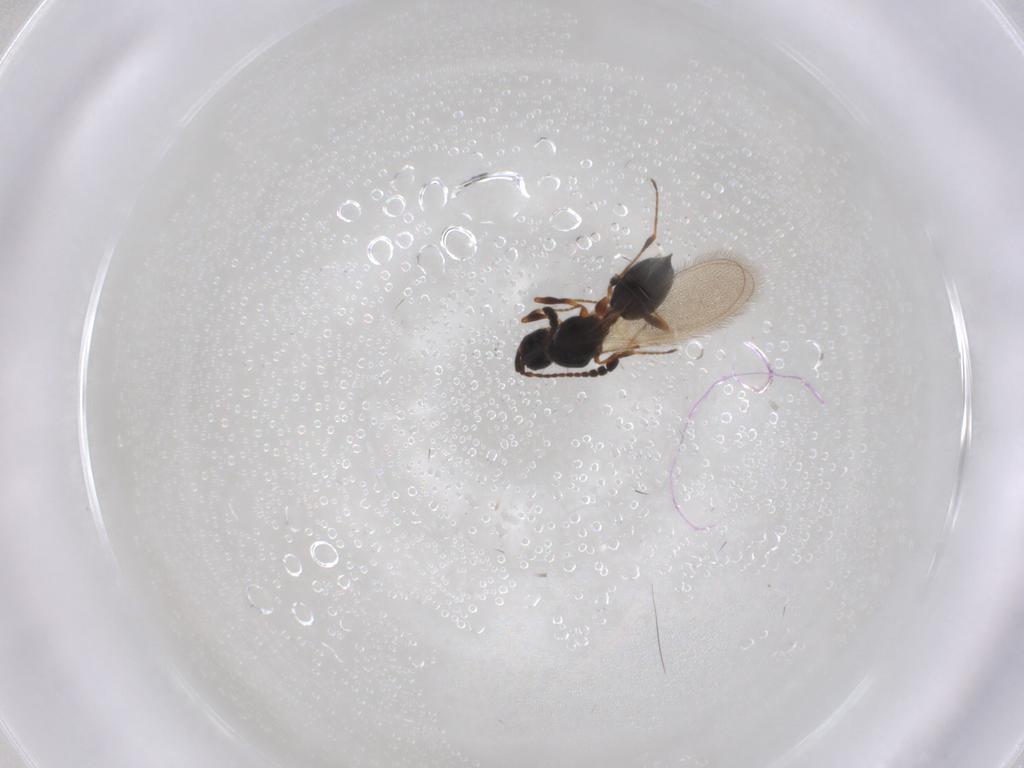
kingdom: Animalia
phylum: Arthropoda
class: Insecta
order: Hymenoptera
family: Diapriidae
